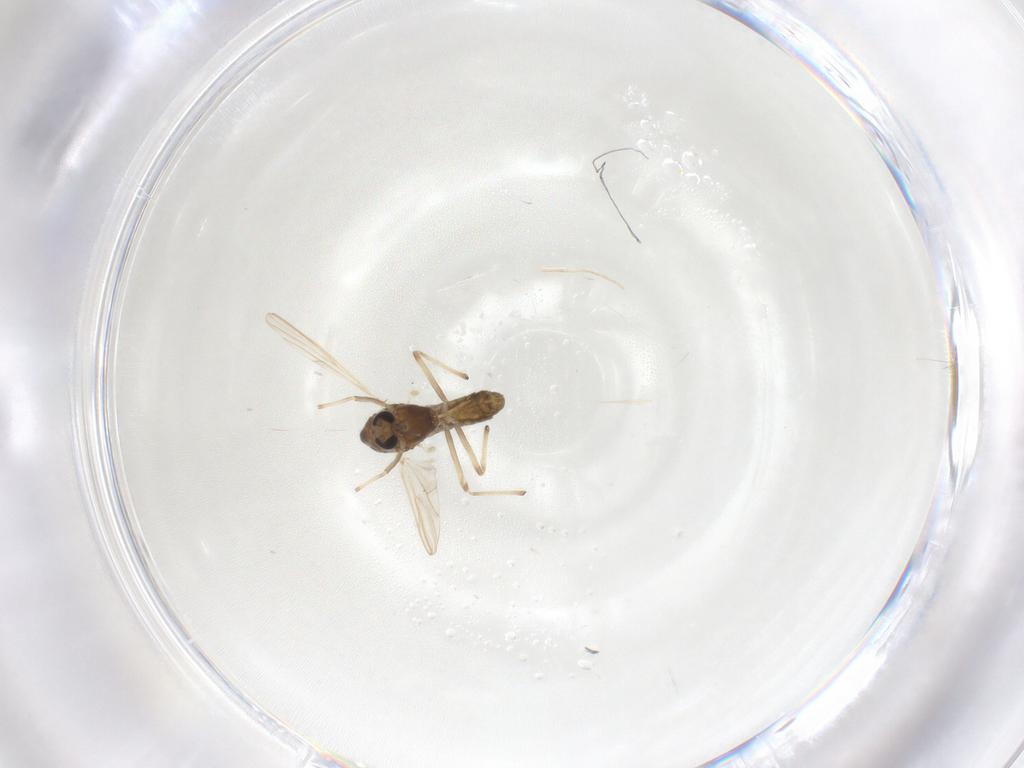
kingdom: Animalia
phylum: Arthropoda
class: Insecta
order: Diptera
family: Chironomidae
